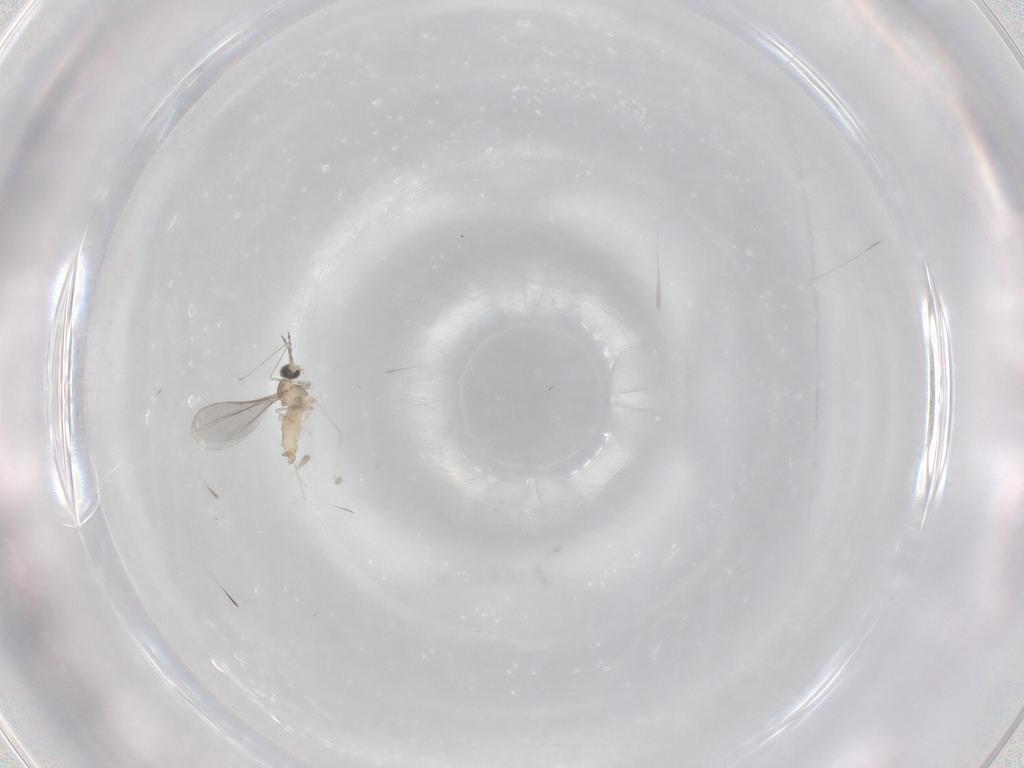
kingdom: Animalia
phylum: Arthropoda
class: Insecta
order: Diptera
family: Cecidomyiidae
